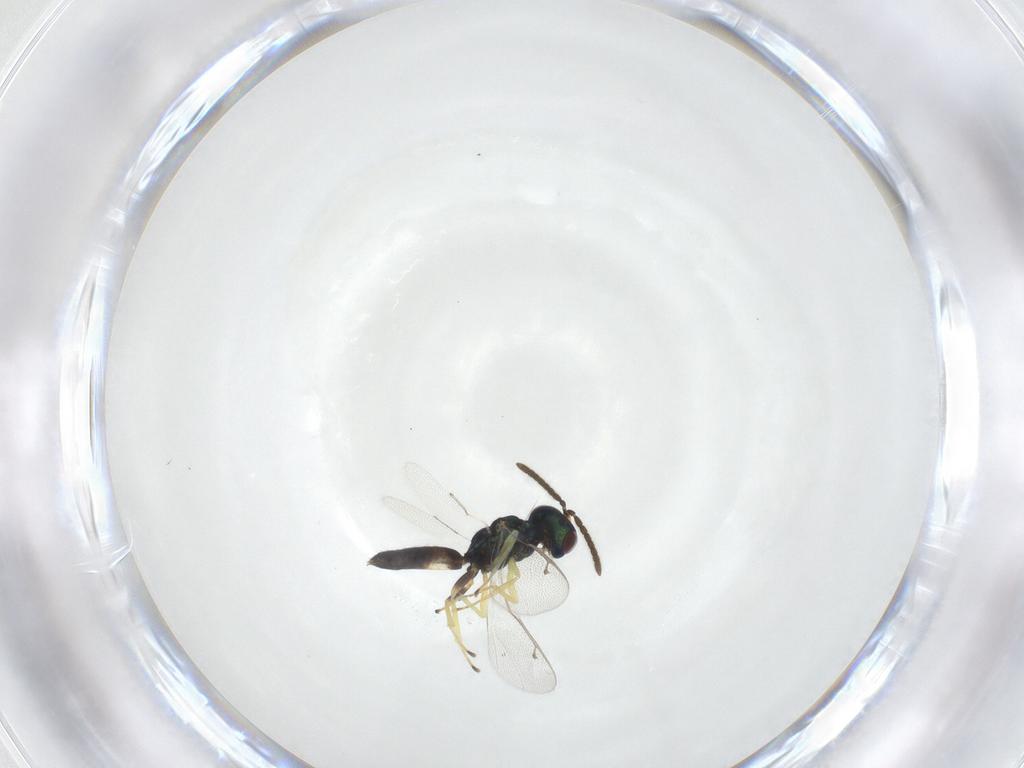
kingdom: Animalia
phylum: Arthropoda
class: Insecta
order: Hymenoptera
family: Pteromalidae
